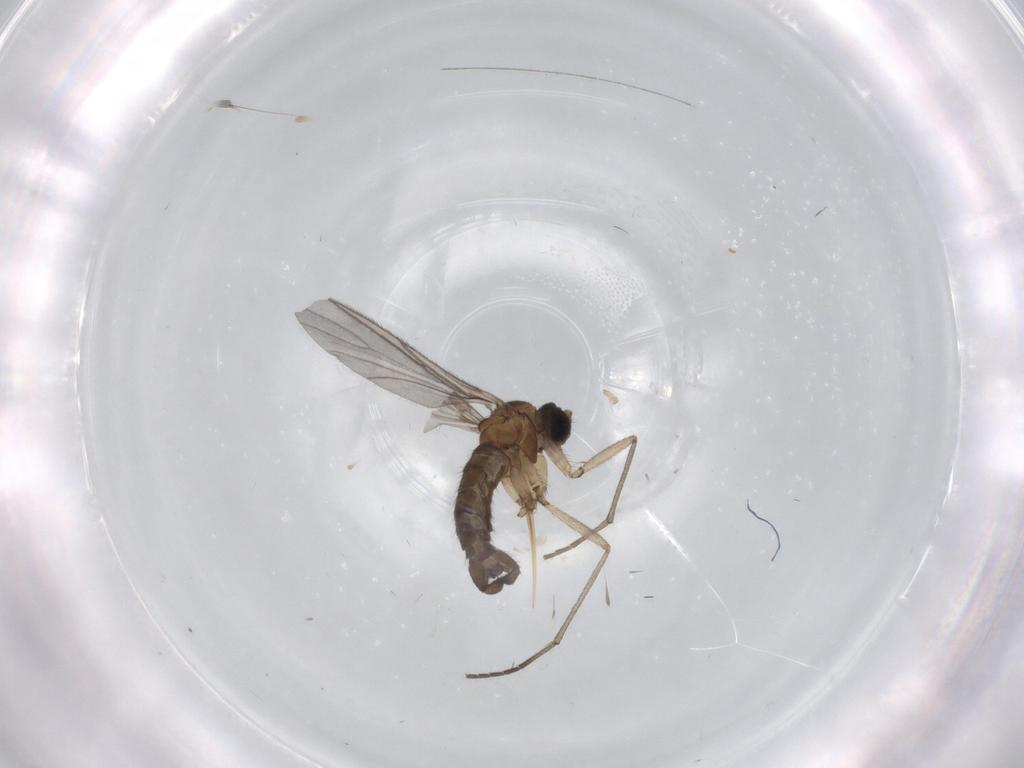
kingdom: Animalia
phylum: Arthropoda
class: Insecta
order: Diptera
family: Sciaridae
